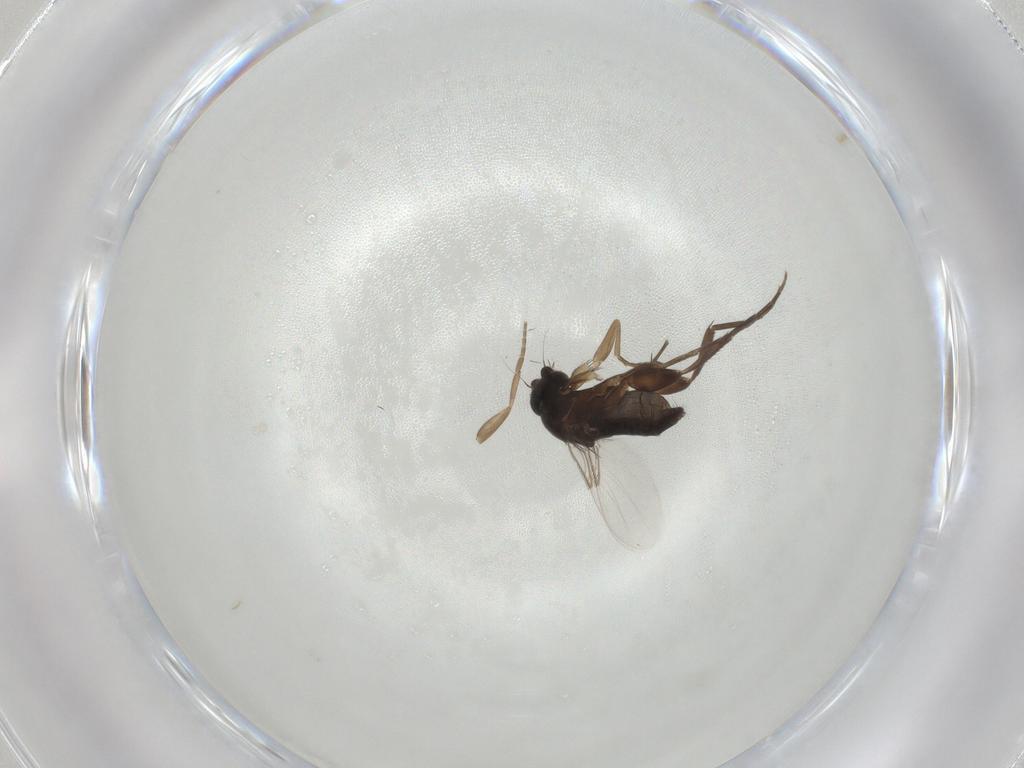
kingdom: Animalia
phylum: Arthropoda
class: Insecta
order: Diptera
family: Phoridae
